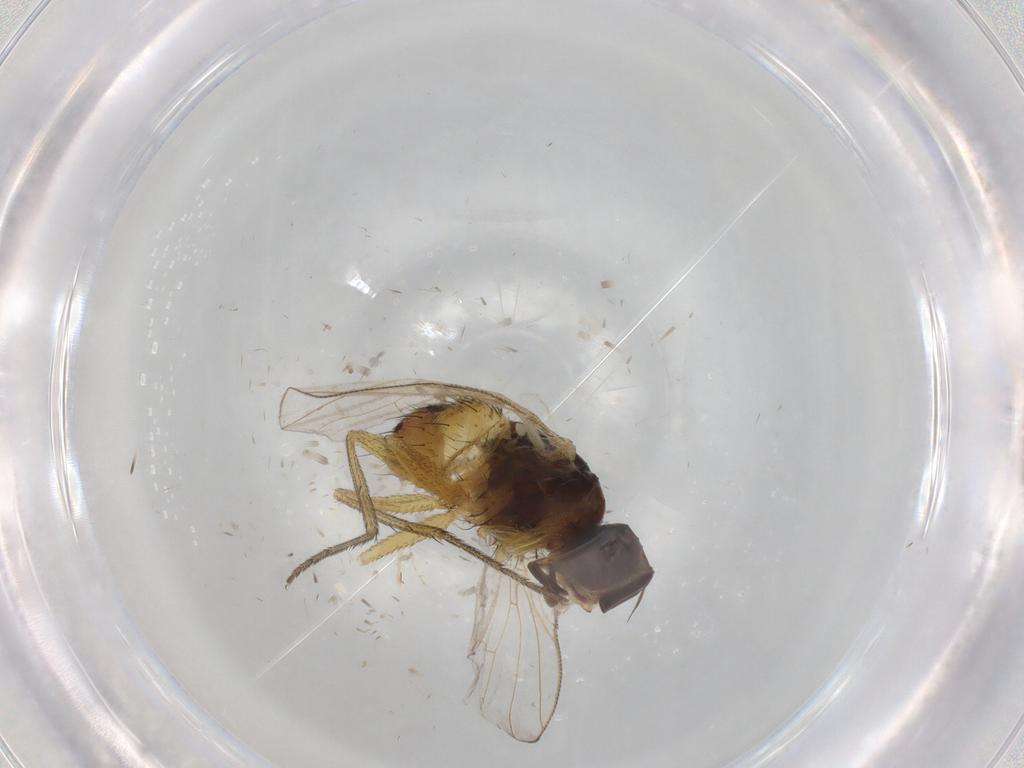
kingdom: Animalia
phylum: Arthropoda
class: Insecta
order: Diptera
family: Muscidae
